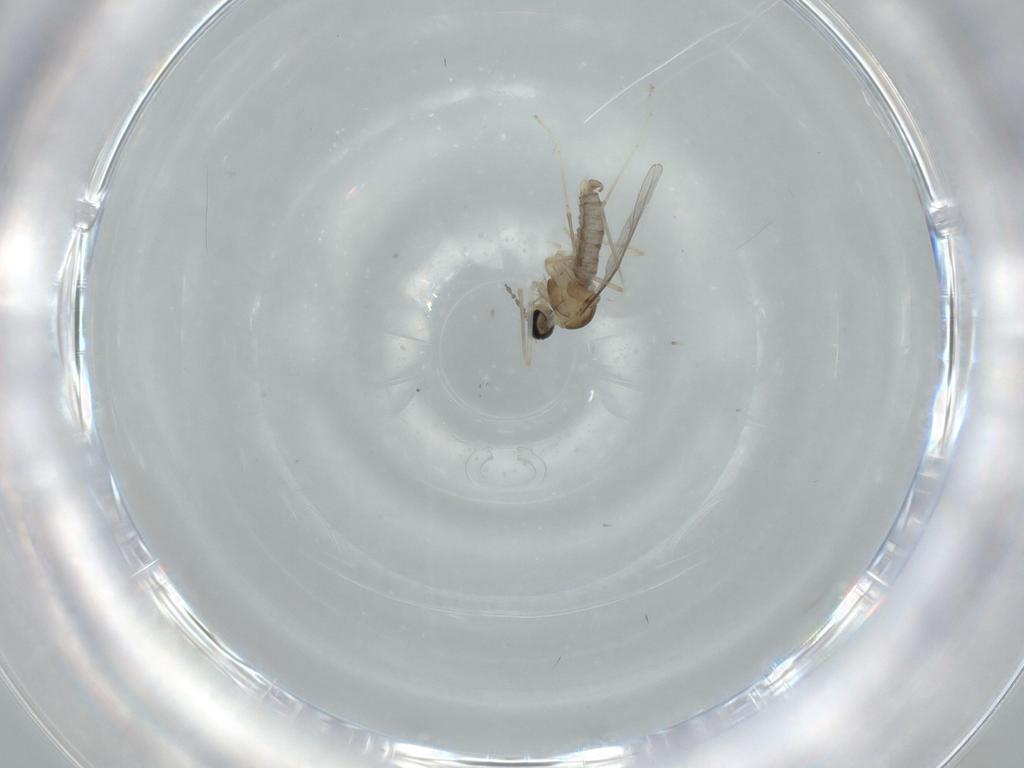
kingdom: Animalia
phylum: Arthropoda
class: Insecta
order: Diptera
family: Cecidomyiidae
